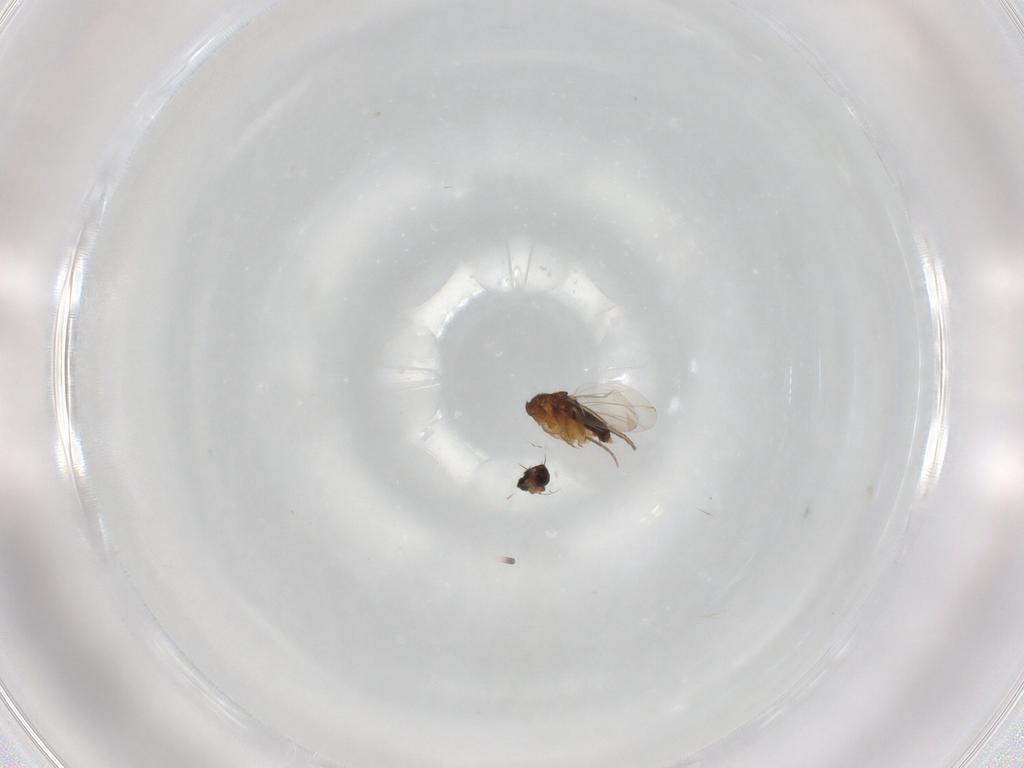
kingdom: Animalia
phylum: Arthropoda
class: Insecta
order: Diptera
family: Phoridae
